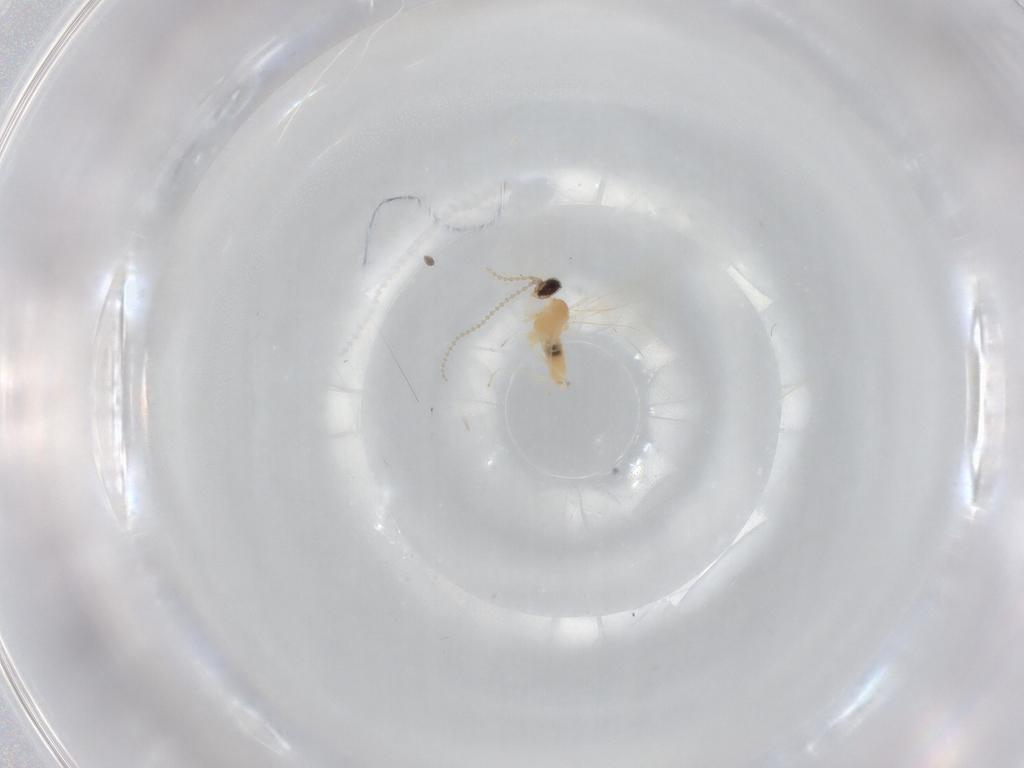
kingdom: Animalia
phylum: Arthropoda
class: Insecta
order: Diptera
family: Cecidomyiidae
